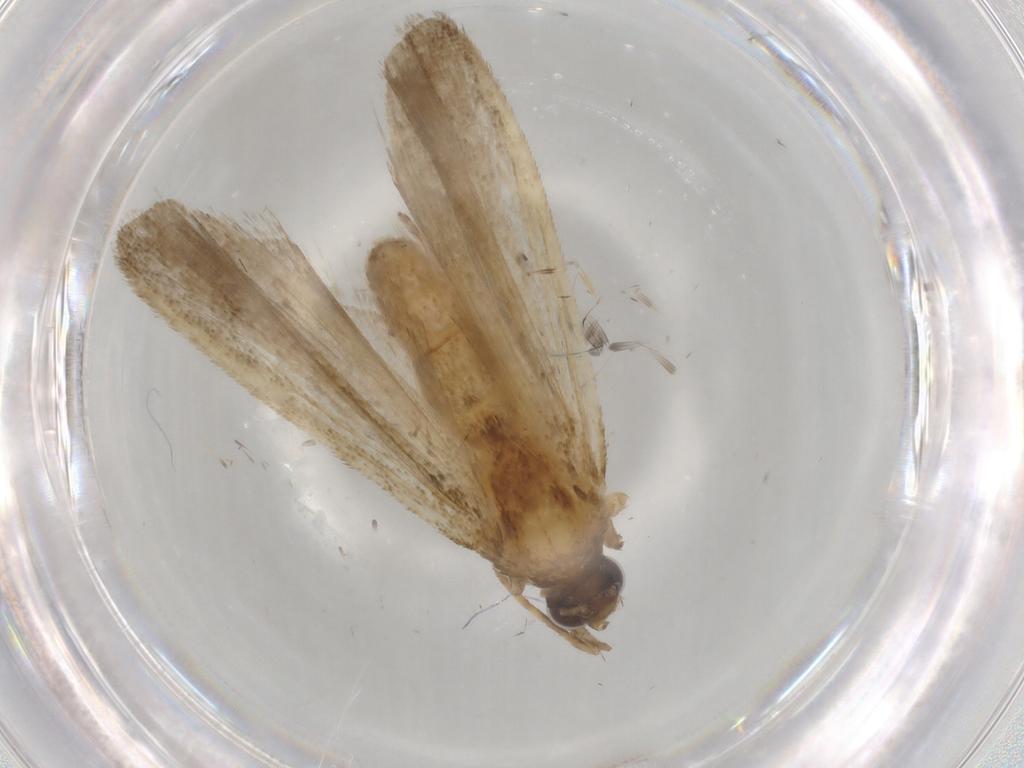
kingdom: Animalia
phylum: Arthropoda
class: Insecta
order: Lepidoptera
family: Noctuidae
